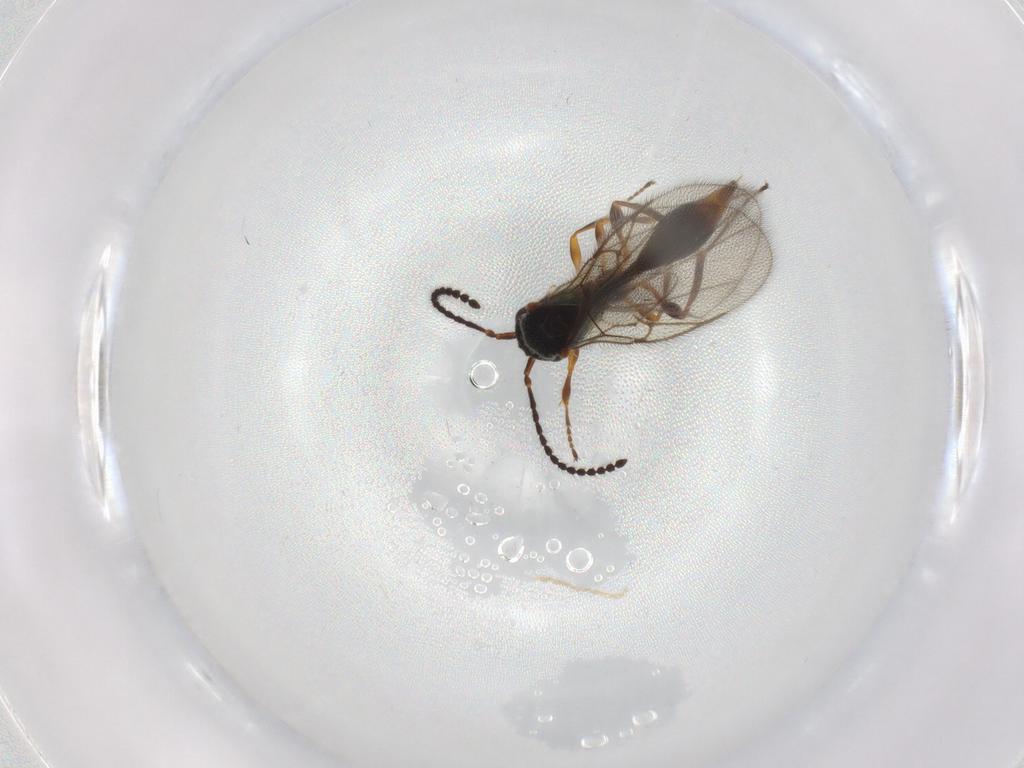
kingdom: Animalia
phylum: Arthropoda
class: Insecta
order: Hymenoptera
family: Diapriidae
